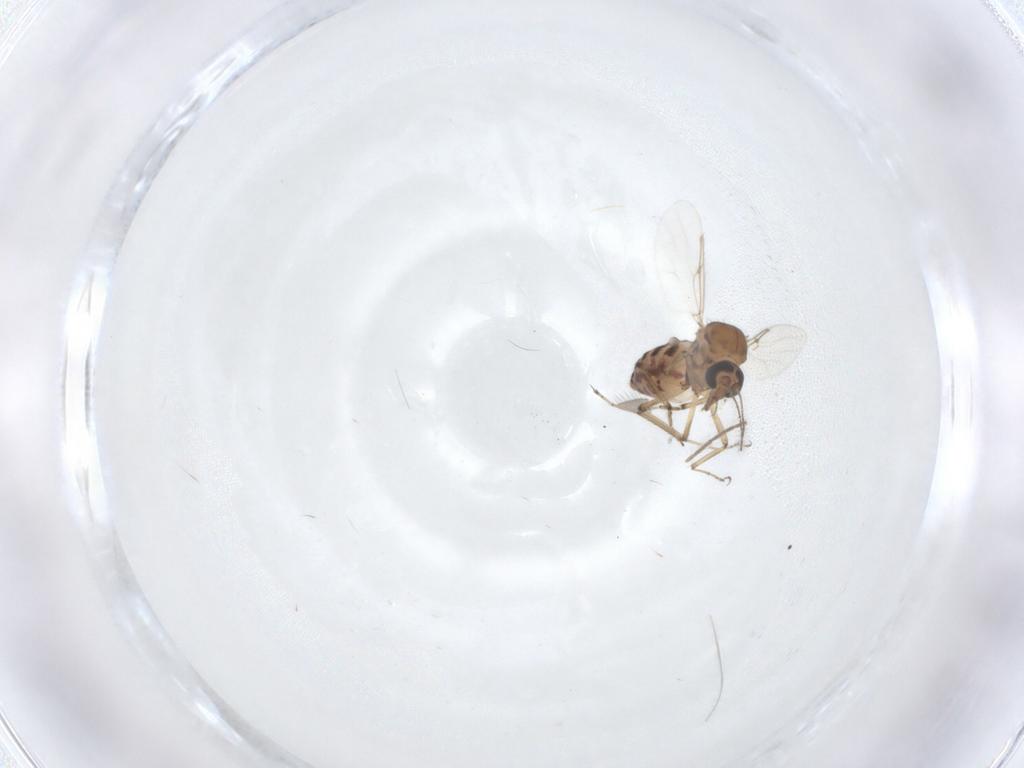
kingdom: Animalia
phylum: Arthropoda
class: Insecta
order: Diptera
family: Ceratopogonidae
